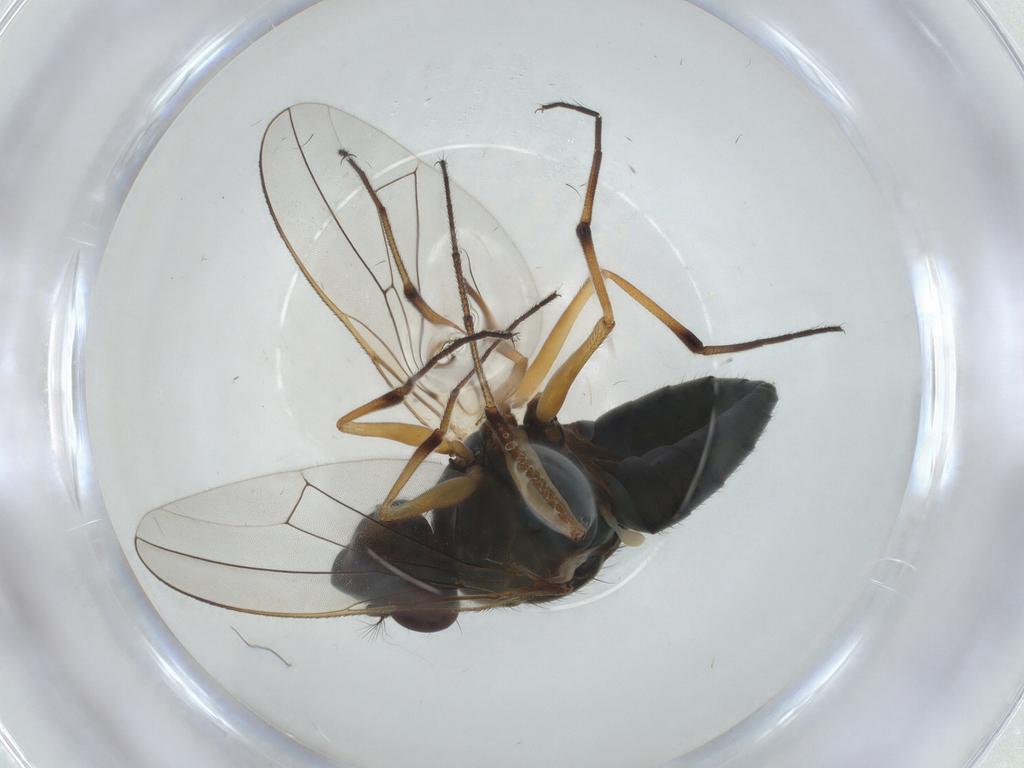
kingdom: Animalia
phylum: Arthropoda
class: Insecta
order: Diptera
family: Ephydridae
